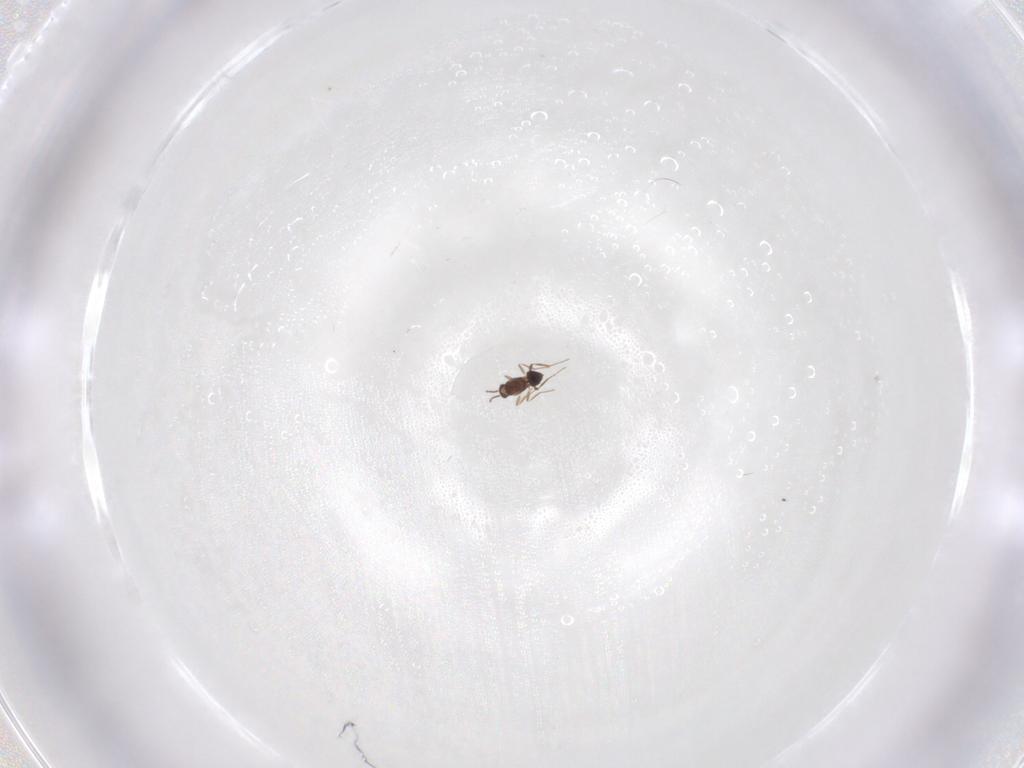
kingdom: Animalia
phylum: Arthropoda
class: Insecta
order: Hymenoptera
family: Mymaridae
